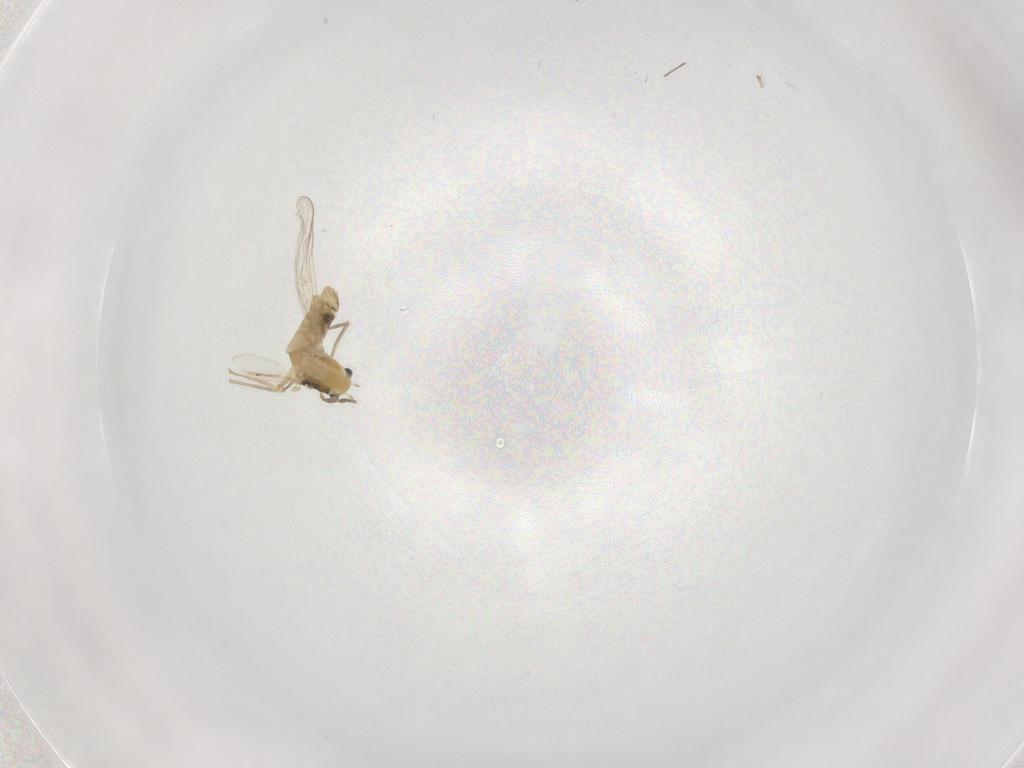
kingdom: Animalia
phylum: Arthropoda
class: Insecta
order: Diptera
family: Chironomidae
